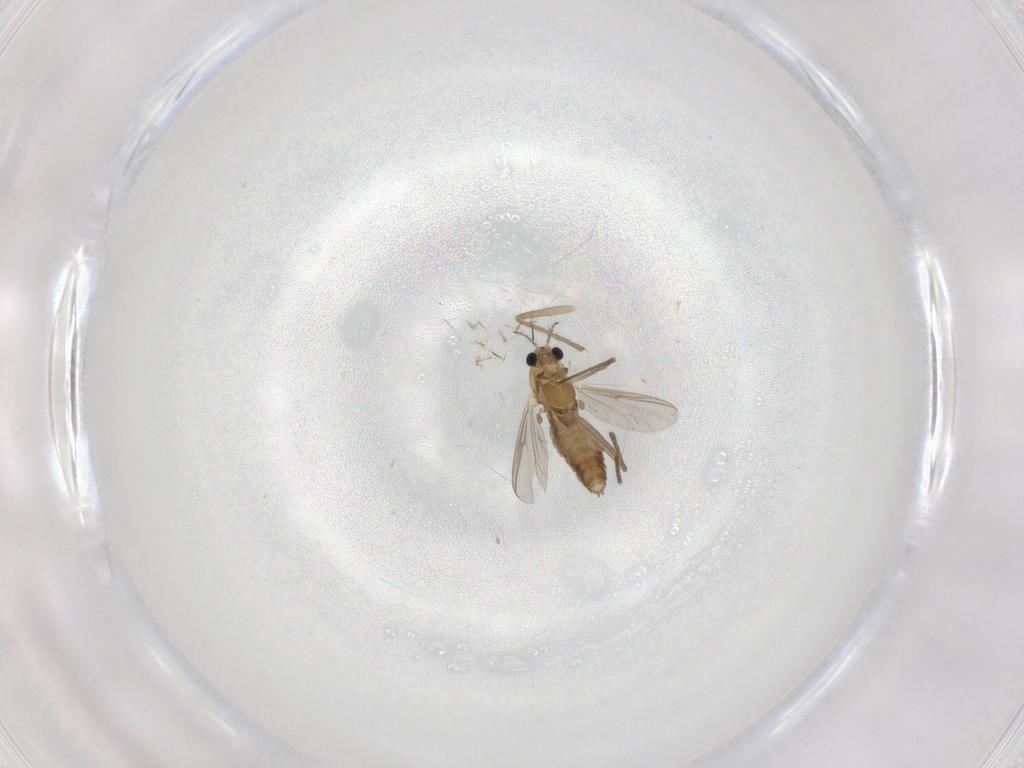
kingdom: Animalia
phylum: Arthropoda
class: Insecta
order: Diptera
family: Chironomidae
